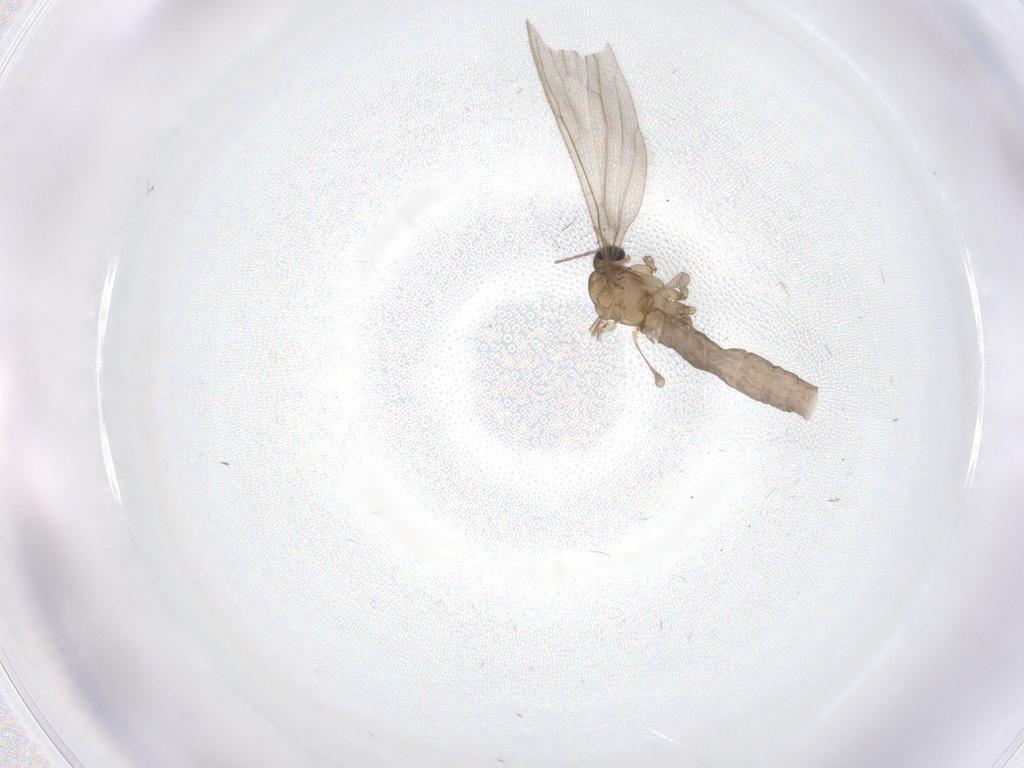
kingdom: Animalia
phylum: Arthropoda
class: Insecta
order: Diptera
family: Limoniidae
